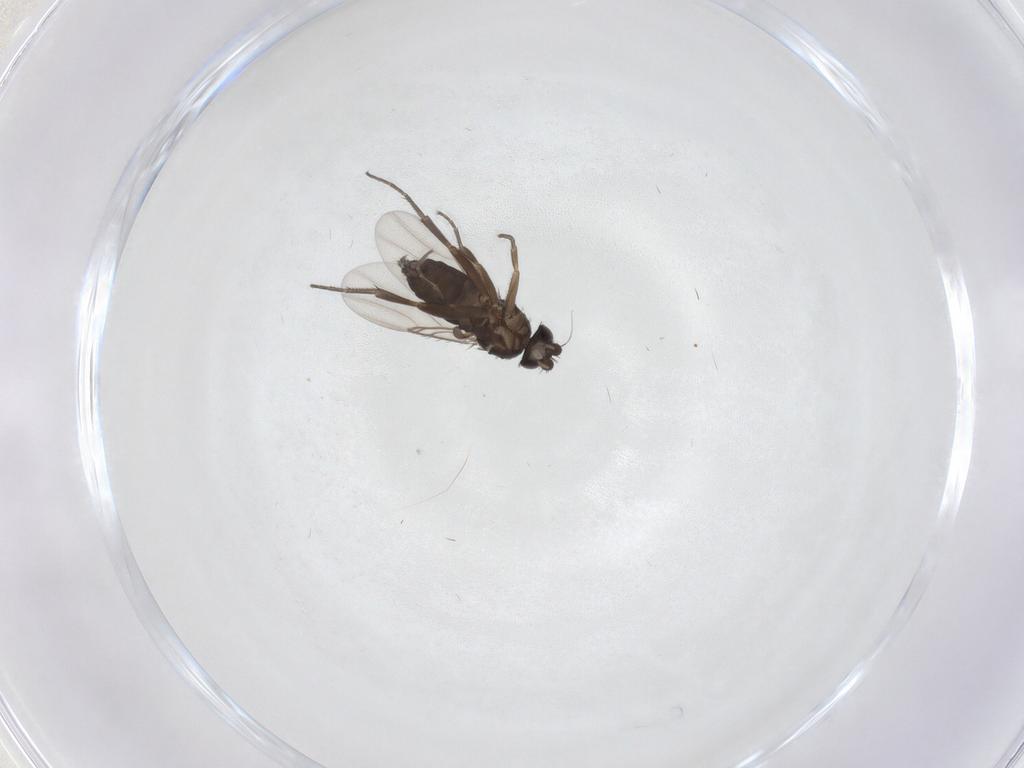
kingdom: Animalia
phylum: Arthropoda
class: Insecta
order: Diptera
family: Phoridae
